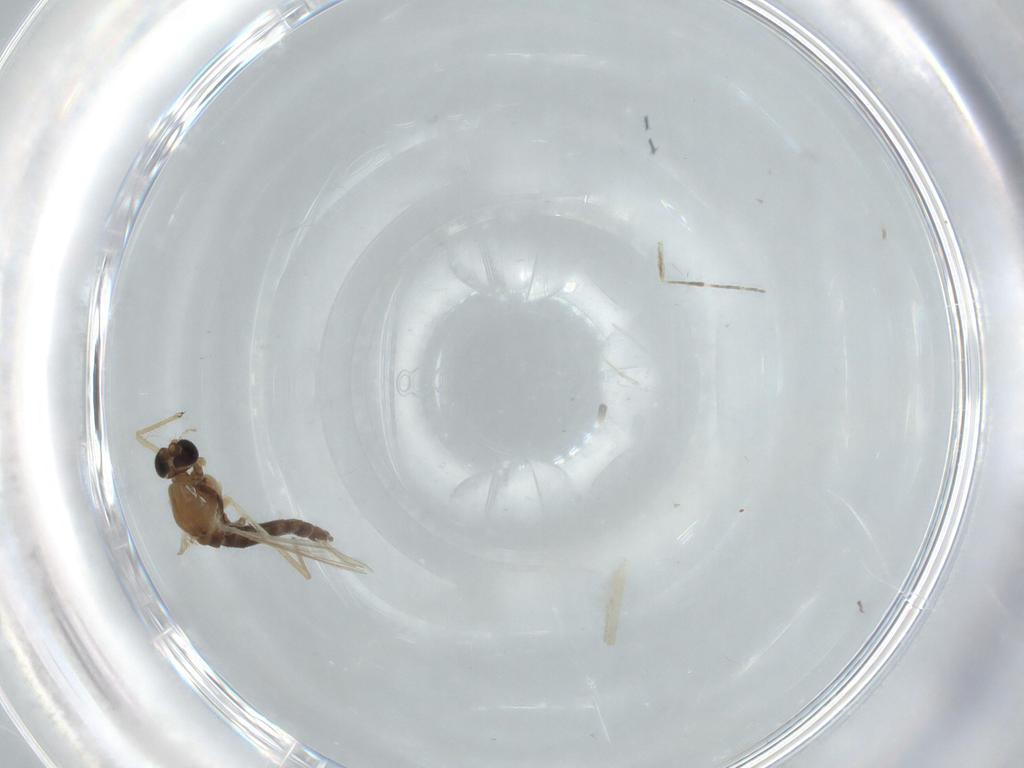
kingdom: Animalia
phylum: Arthropoda
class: Insecta
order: Diptera
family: Chironomidae
